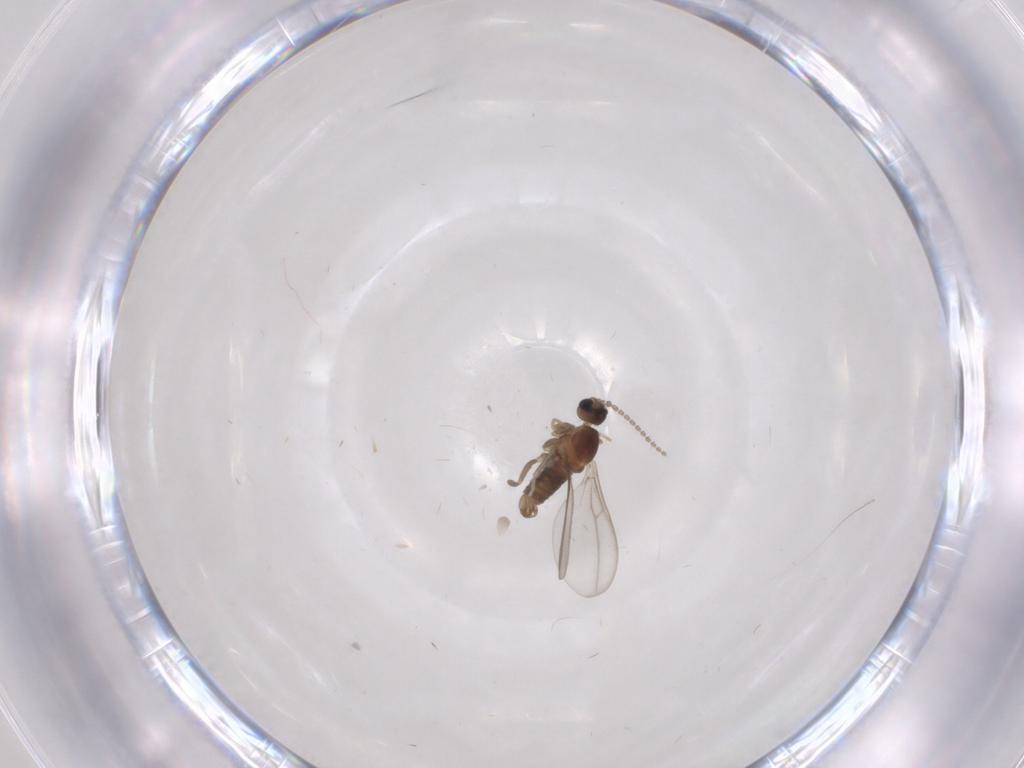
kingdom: Animalia
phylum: Arthropoda
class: Insecta
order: Diptera
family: Cecidomyiidae
